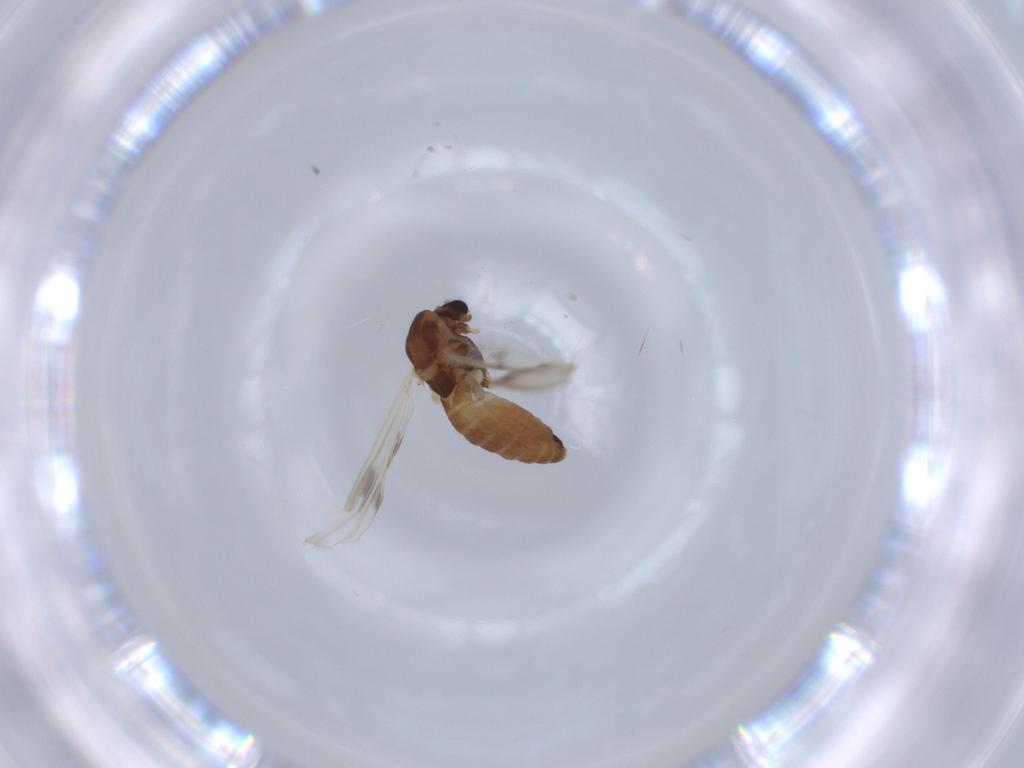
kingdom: Animalia
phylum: Arthropoda
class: Insecta
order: Diptera
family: Chironomidae
